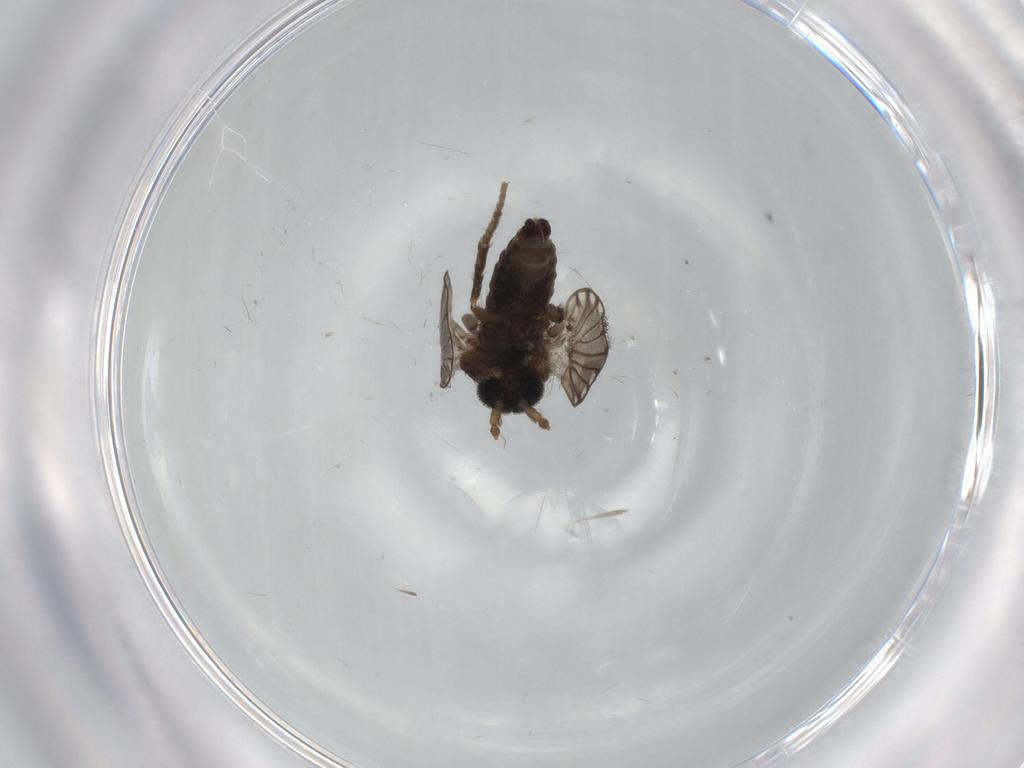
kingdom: Animalia
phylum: Arthropoda
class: Insecta
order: Diptera
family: Psychodidae
